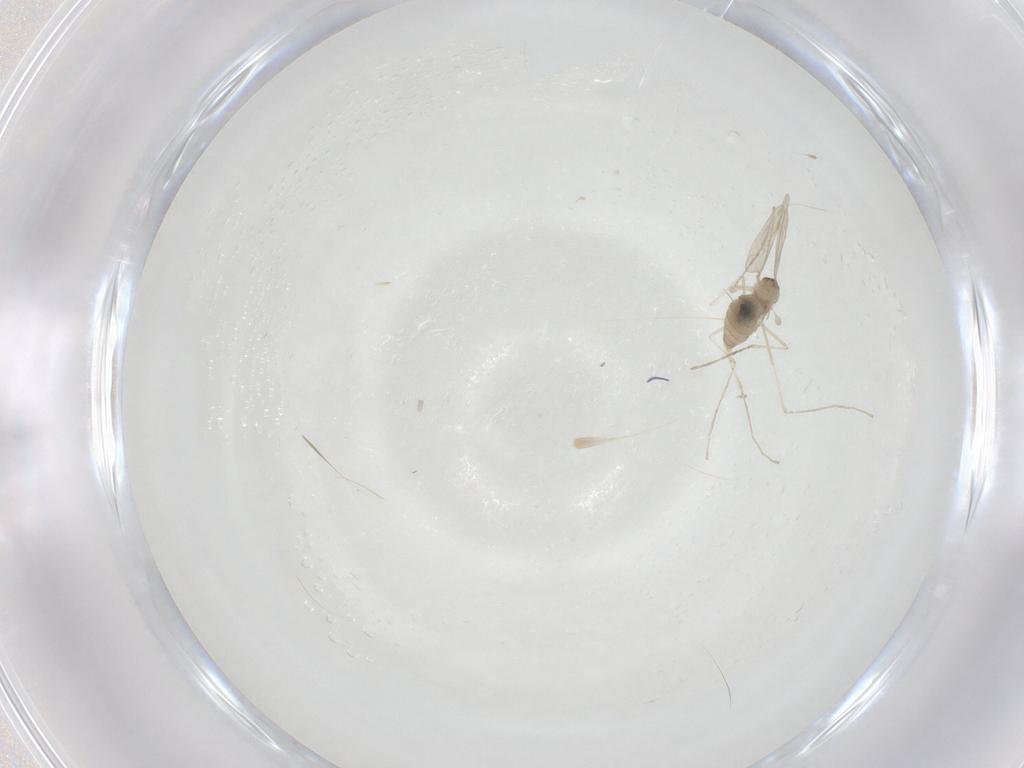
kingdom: Animalia
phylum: Arthropoda
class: Insecta
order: Diptera
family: Cecidomyiidae
